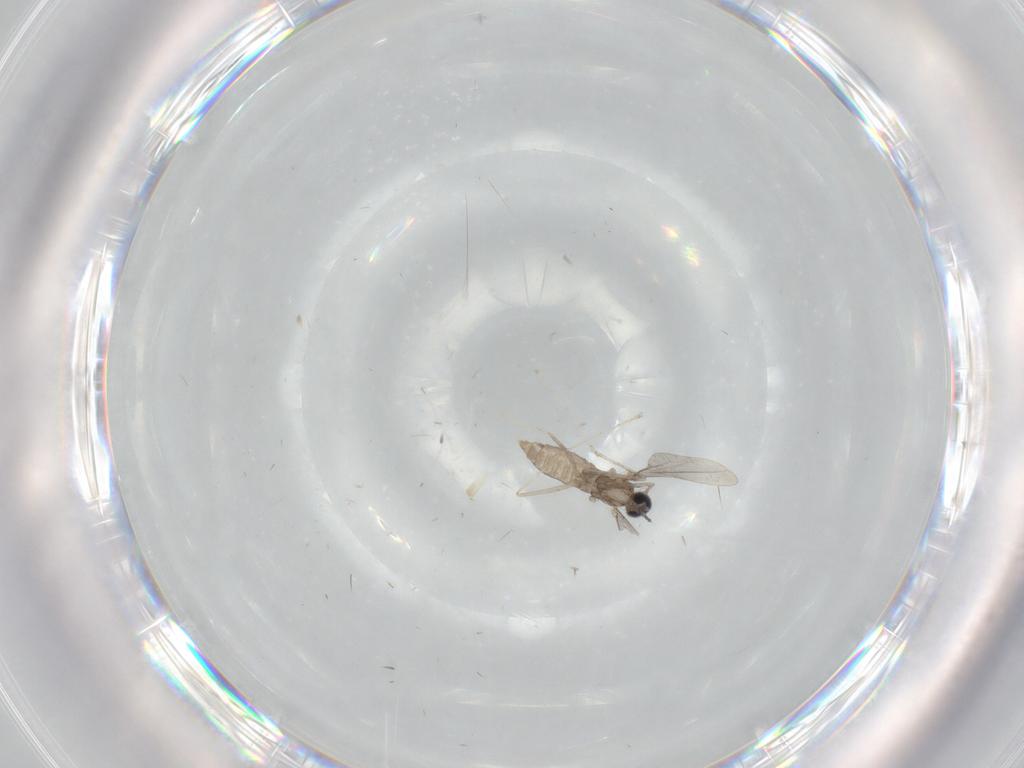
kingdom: Animalia
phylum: Arthropoda
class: Insecta
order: Diptera
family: Cecidomyiidae
